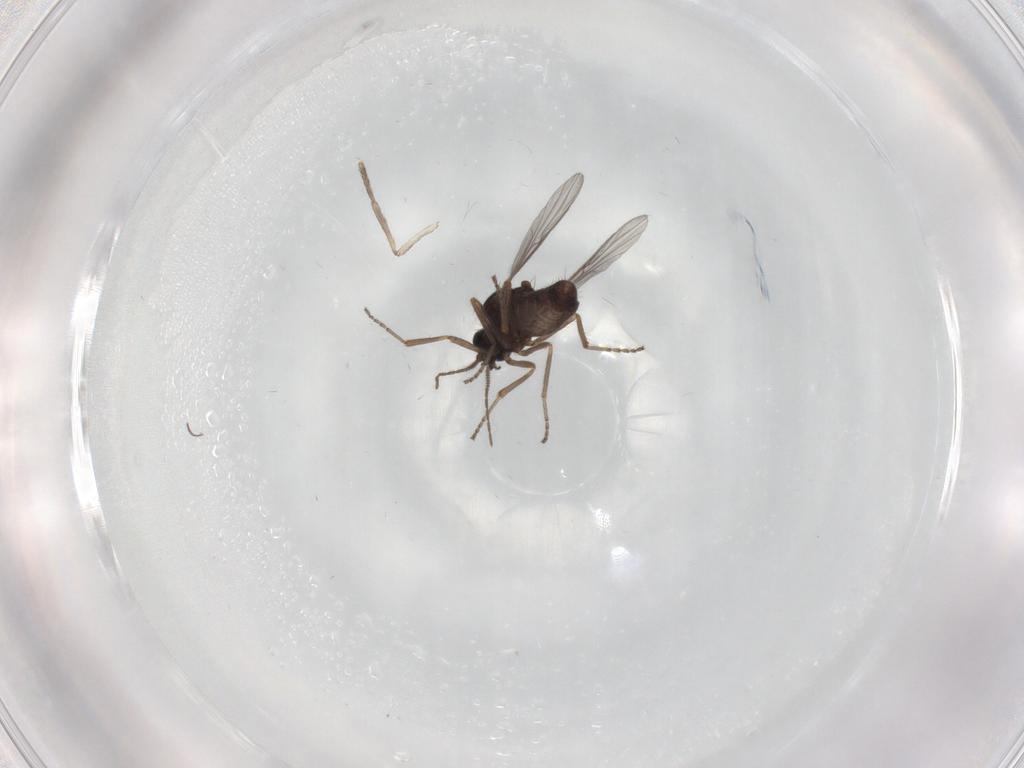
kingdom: Animalia
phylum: Arthropoda
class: Insecta
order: Diptera
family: Ceratopogonidae
